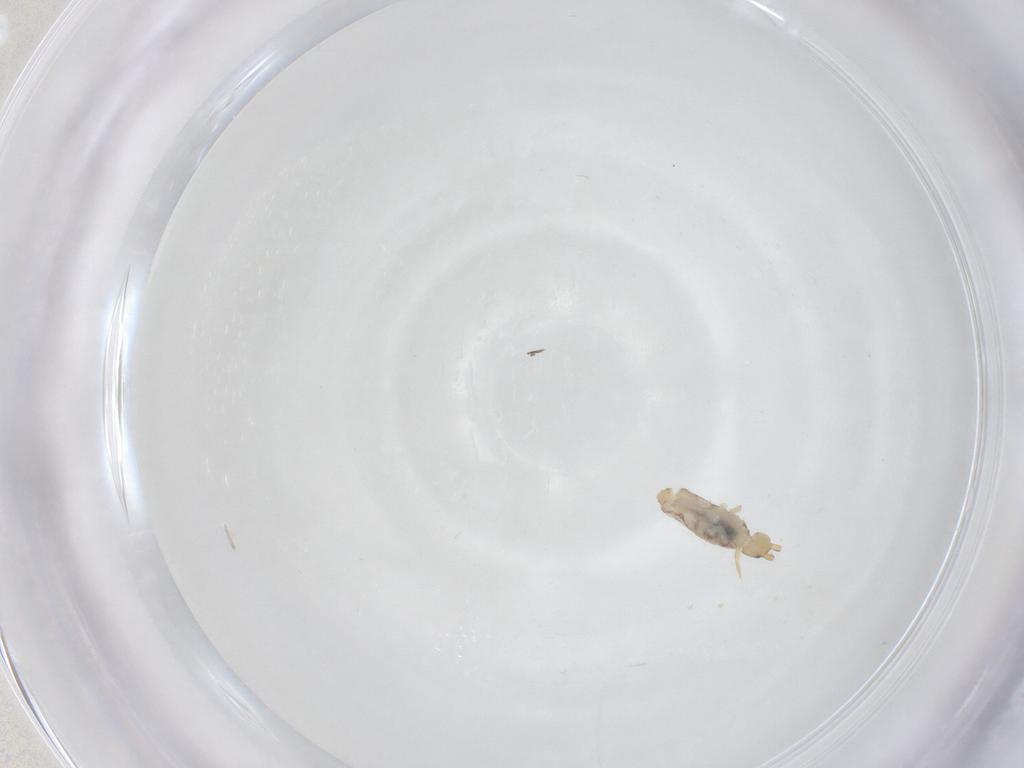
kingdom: Animalia
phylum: Arthropoda
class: Collembola
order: Entomobryomorpha
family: Entomobryidae
